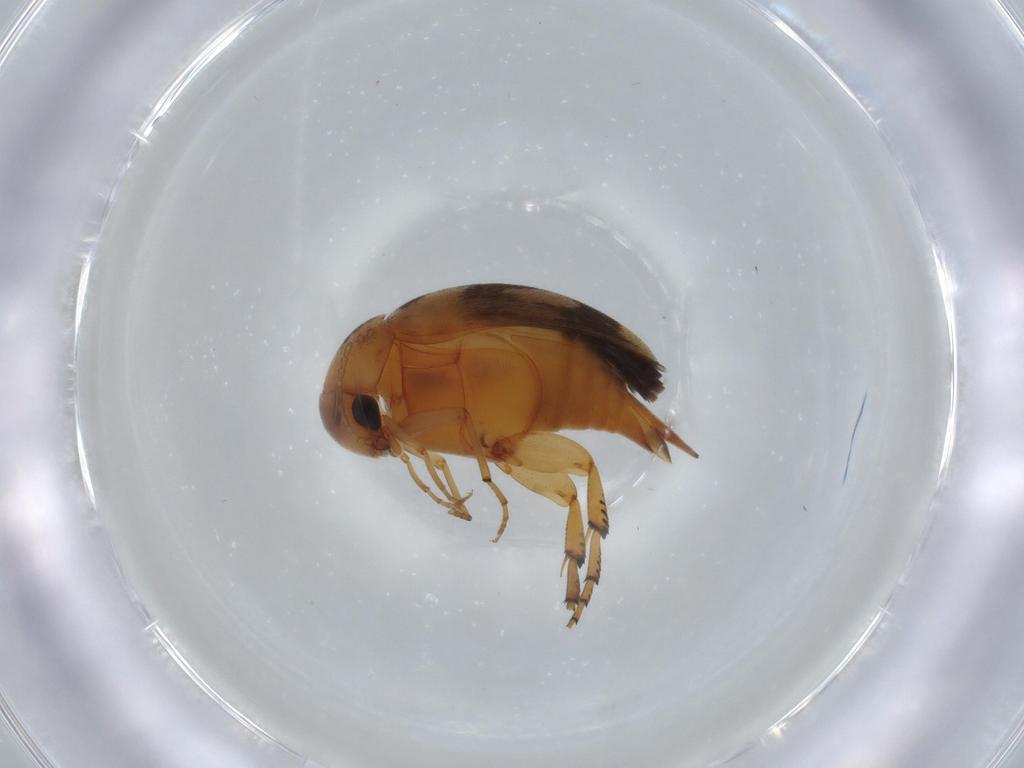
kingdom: Animalia
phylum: Arthropoda
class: Insecta
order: Coleoptera
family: Mordellidae
